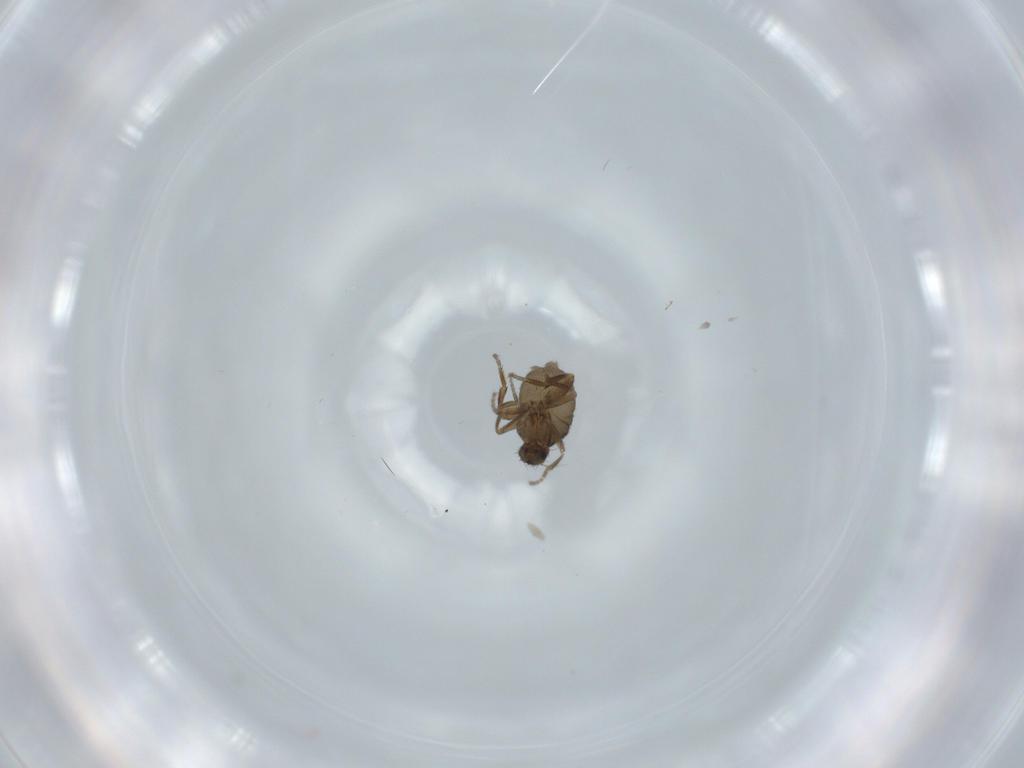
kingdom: Animalia
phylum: Arthropoda
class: Insecta
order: Diptera
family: Phoridae
